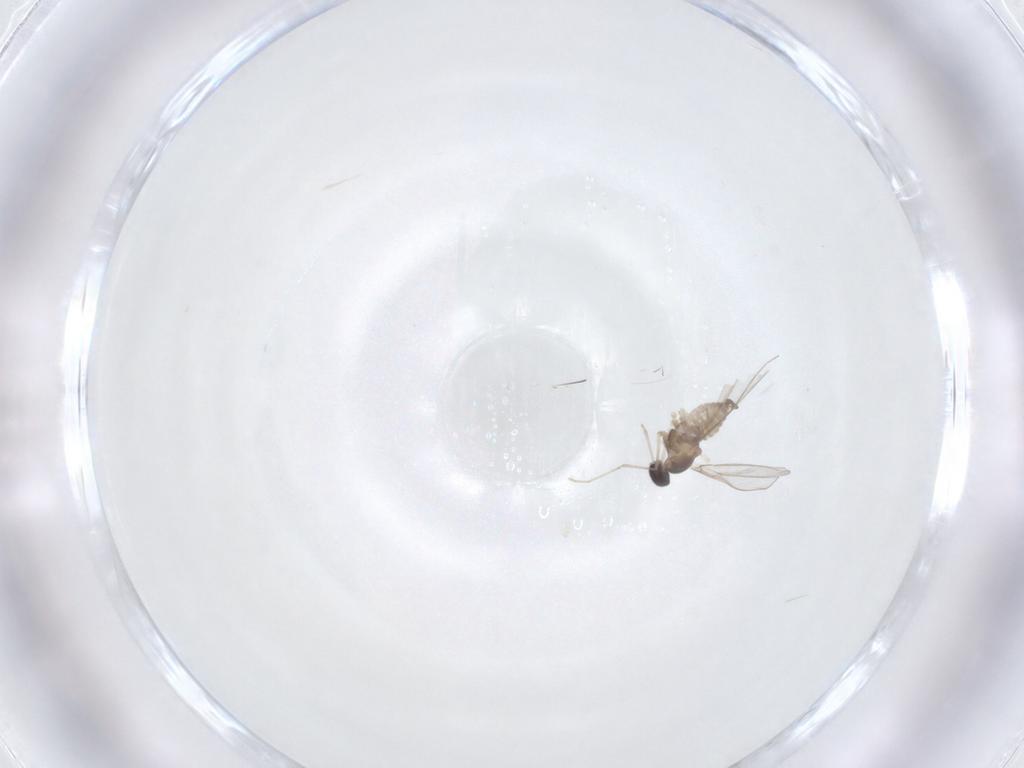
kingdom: Animalia
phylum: Arthropoda
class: Insecta
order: Diptera
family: Cecidomyiidae
